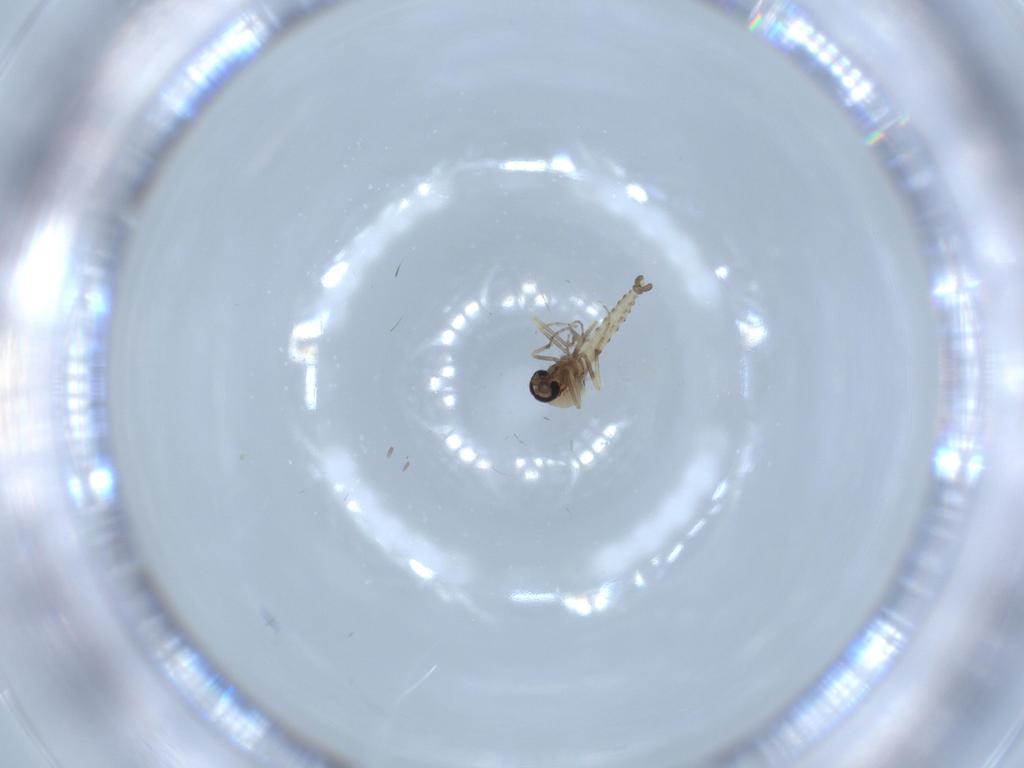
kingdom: Animalia
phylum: Arthropoda
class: Insecta
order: Diptera
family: Ceratopogonidae
